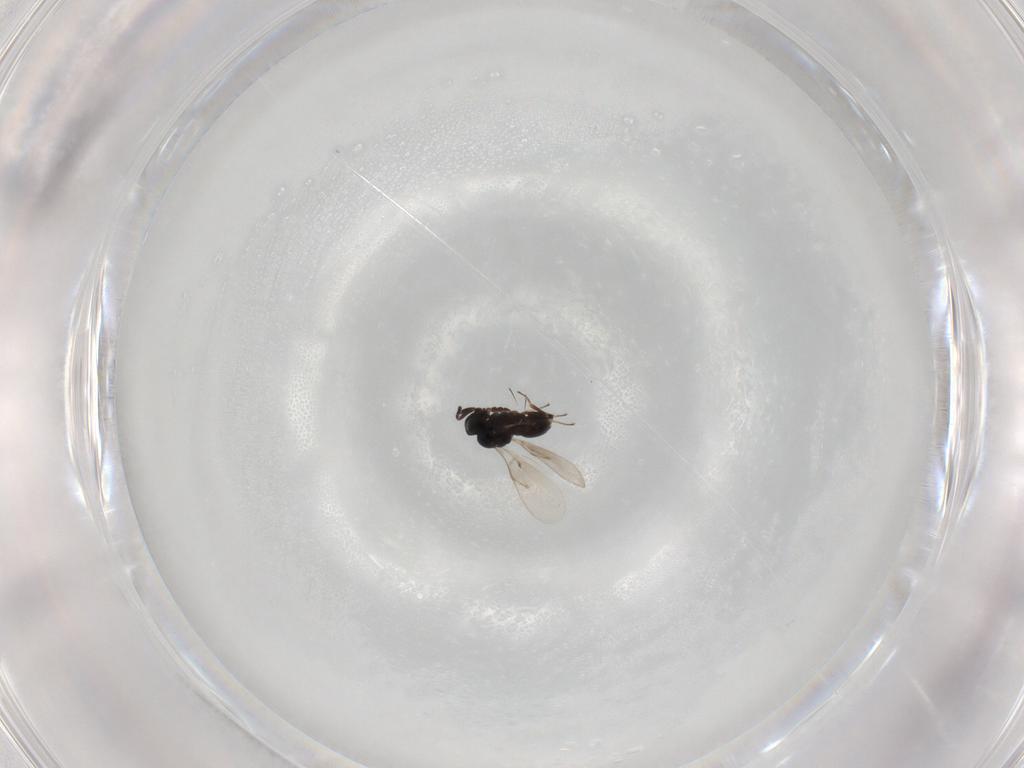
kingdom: Animalia
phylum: Arthropoda
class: Insecta
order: Hymenoptera
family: Scelionidae
